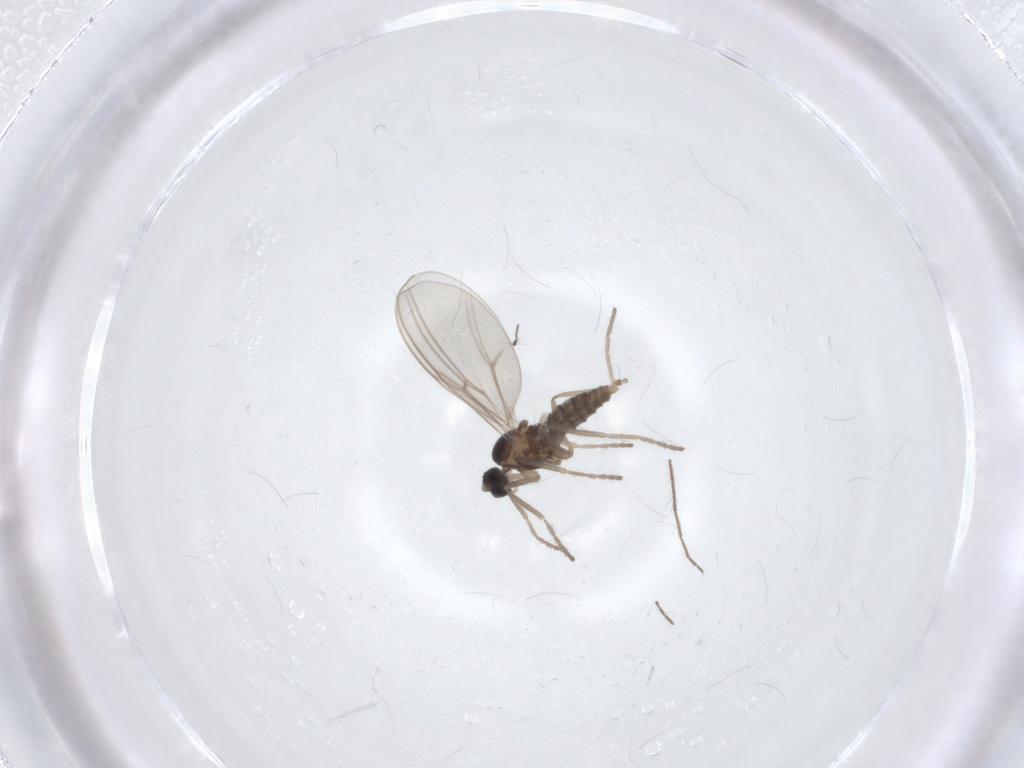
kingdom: Animalia
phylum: Arthropoda
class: Insecta
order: Diptera
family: Cecidomyiidae
